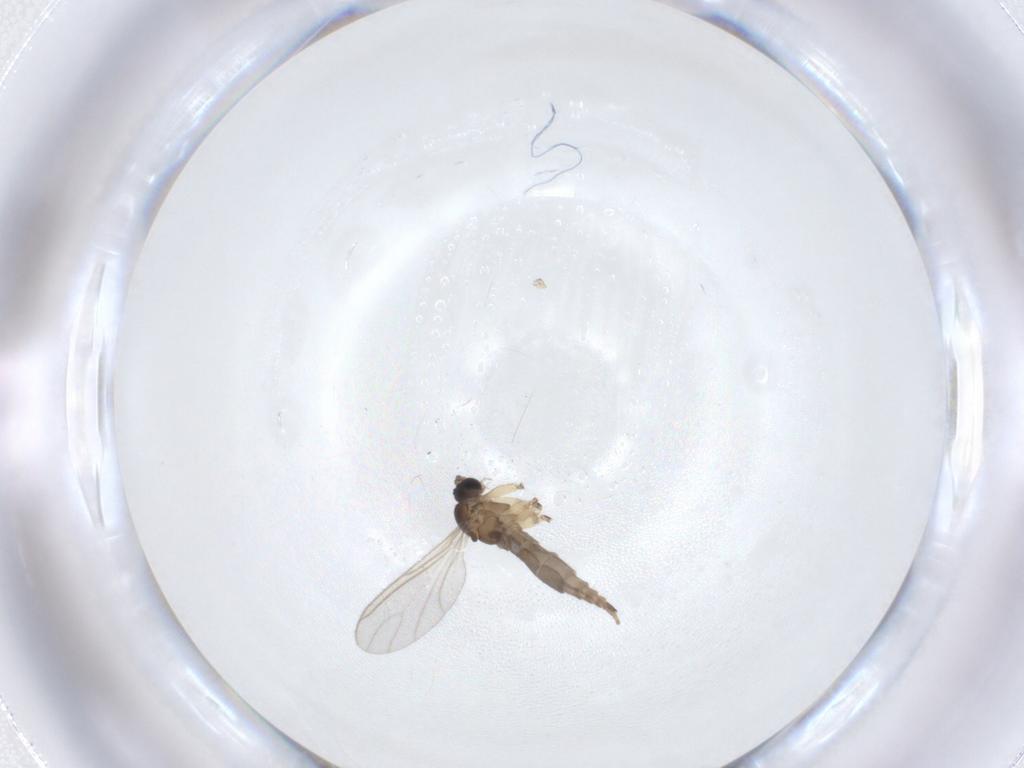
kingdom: Animalia
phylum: Arthropoda
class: Insecta
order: Diptera
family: Sciaridae
